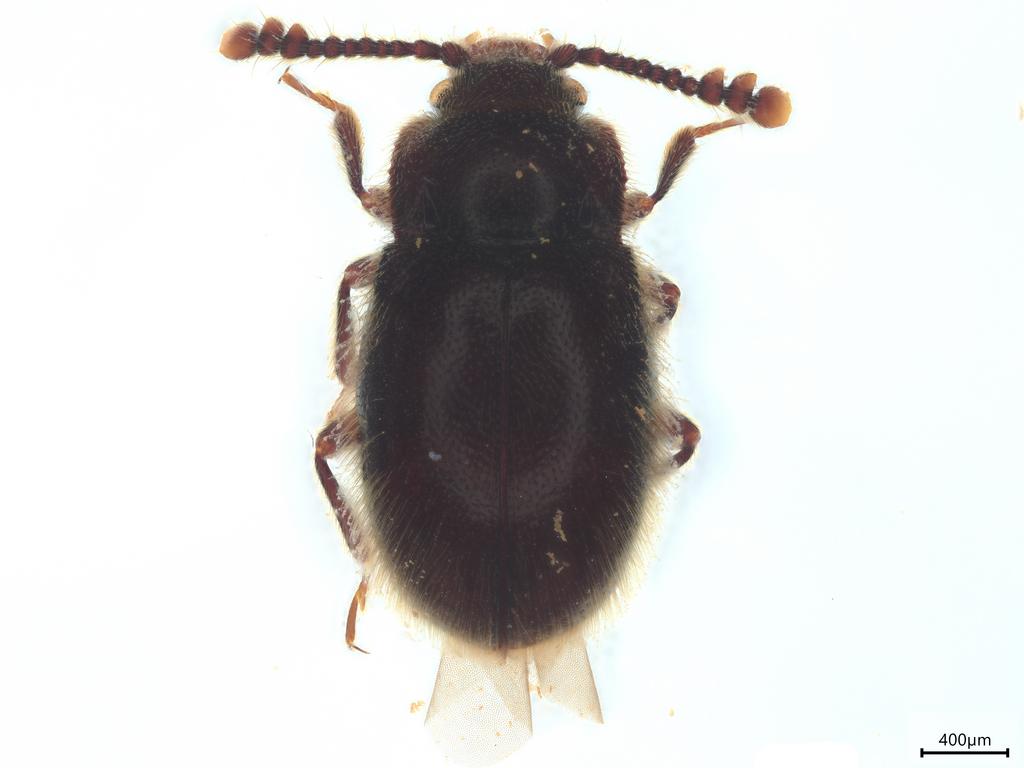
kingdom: Animalia
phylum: Arthropoda
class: Insecta
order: Coleoptera
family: Endomychidae
